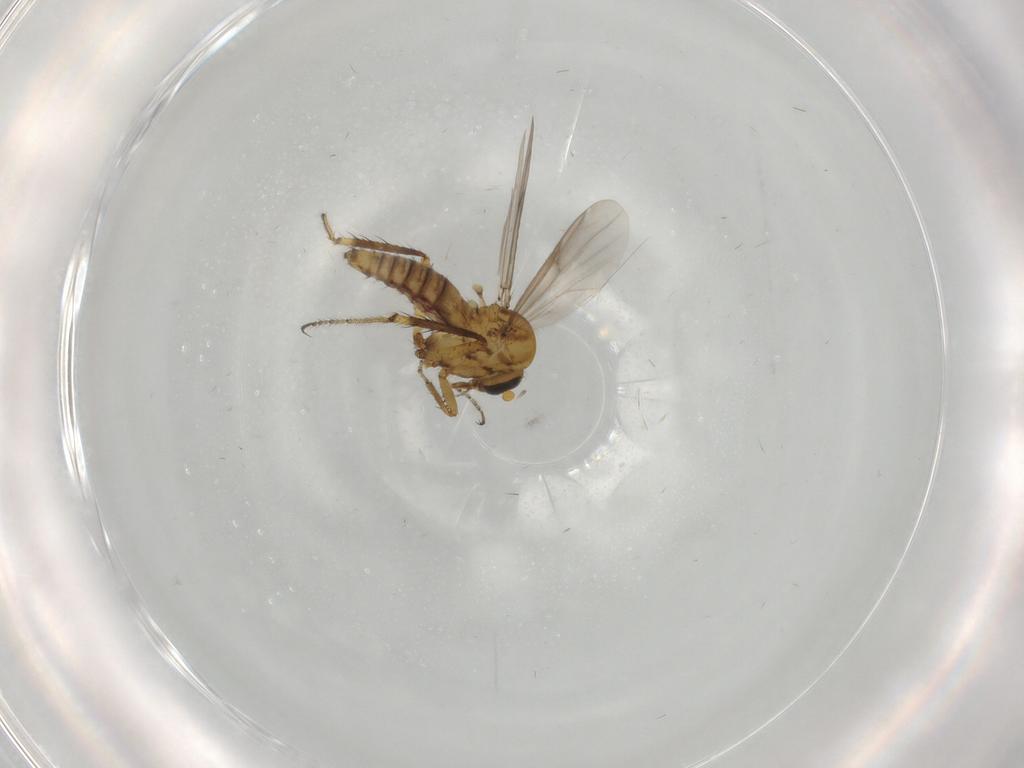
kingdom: Animalia
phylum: Arthropoda
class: Insecta
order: Diptera
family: Ceratopogonidae
